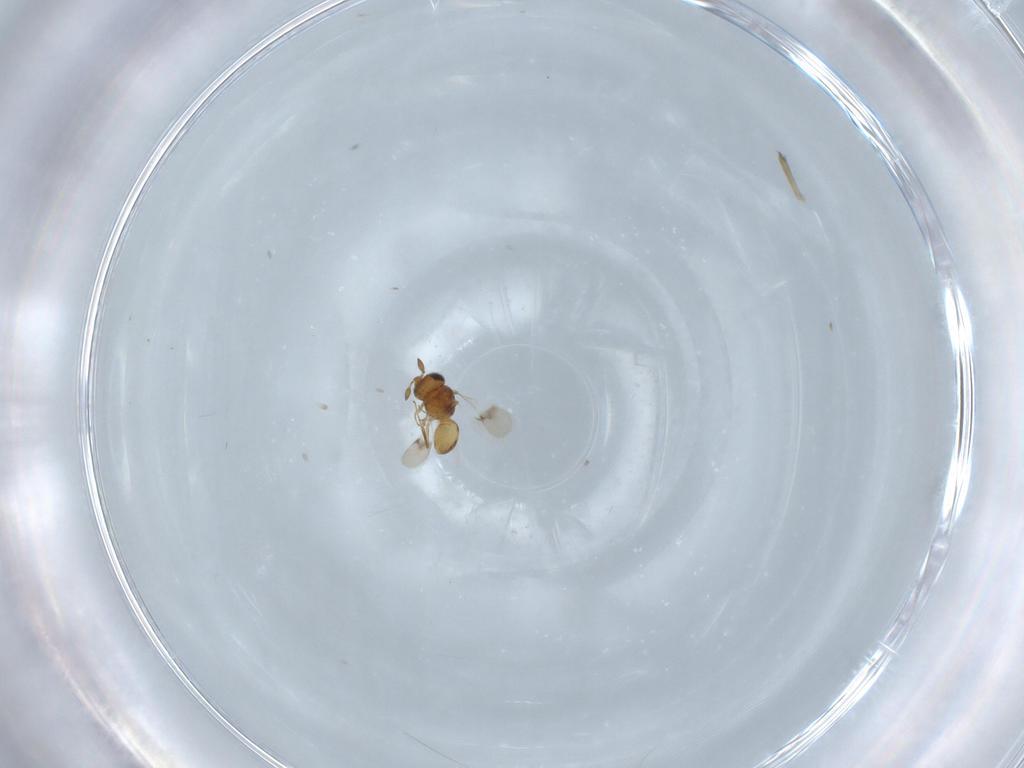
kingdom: Animalia
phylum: Arthropoda
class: Insecta
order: Hymenoptera
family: Scelionidae
